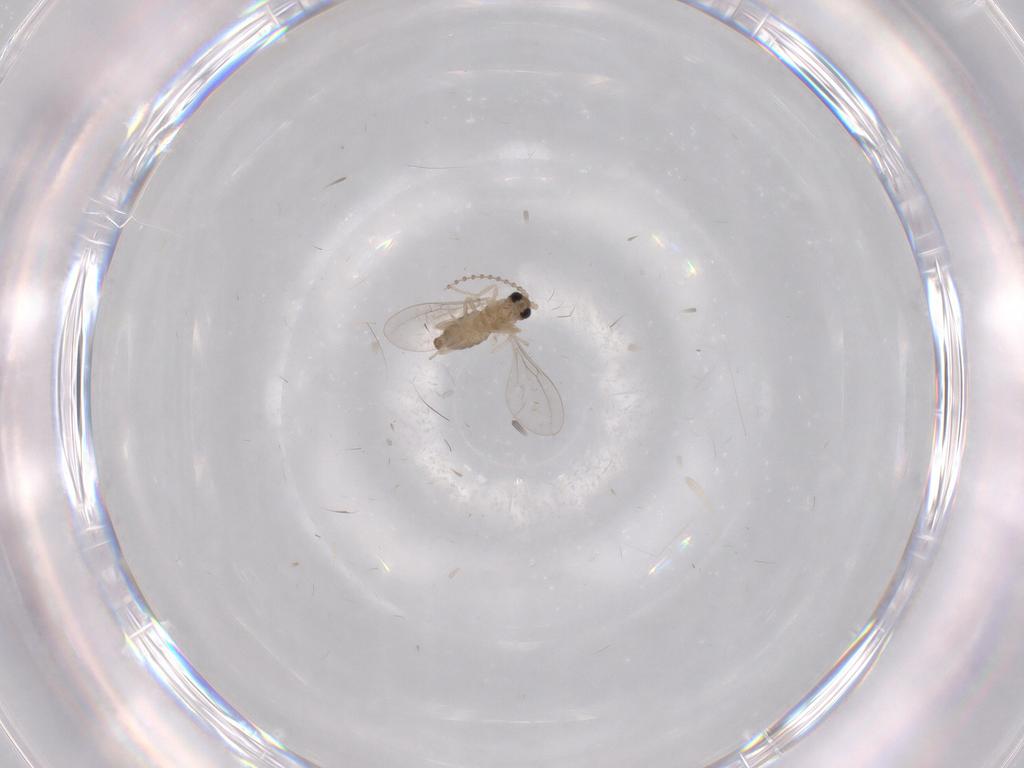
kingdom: Animalia
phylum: Arthropoda
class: Insecta
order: Diptera
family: Cecidomyiidae
